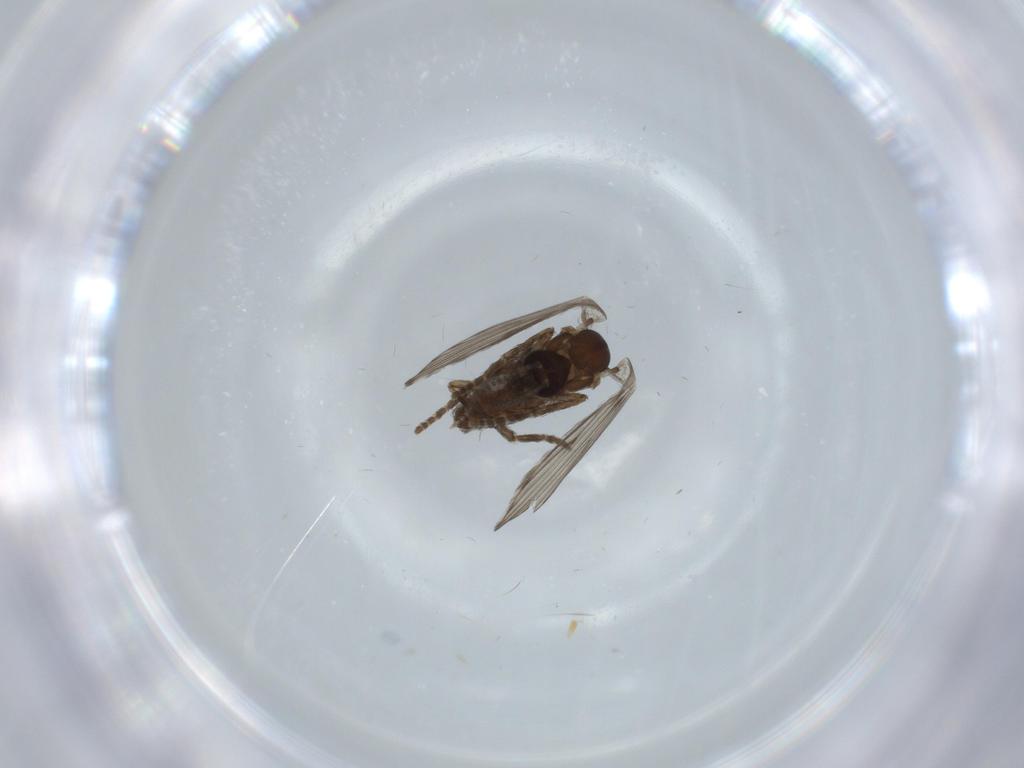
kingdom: Animalia
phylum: Arthropoda
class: Insecta
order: Diptera
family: Psychodidae
